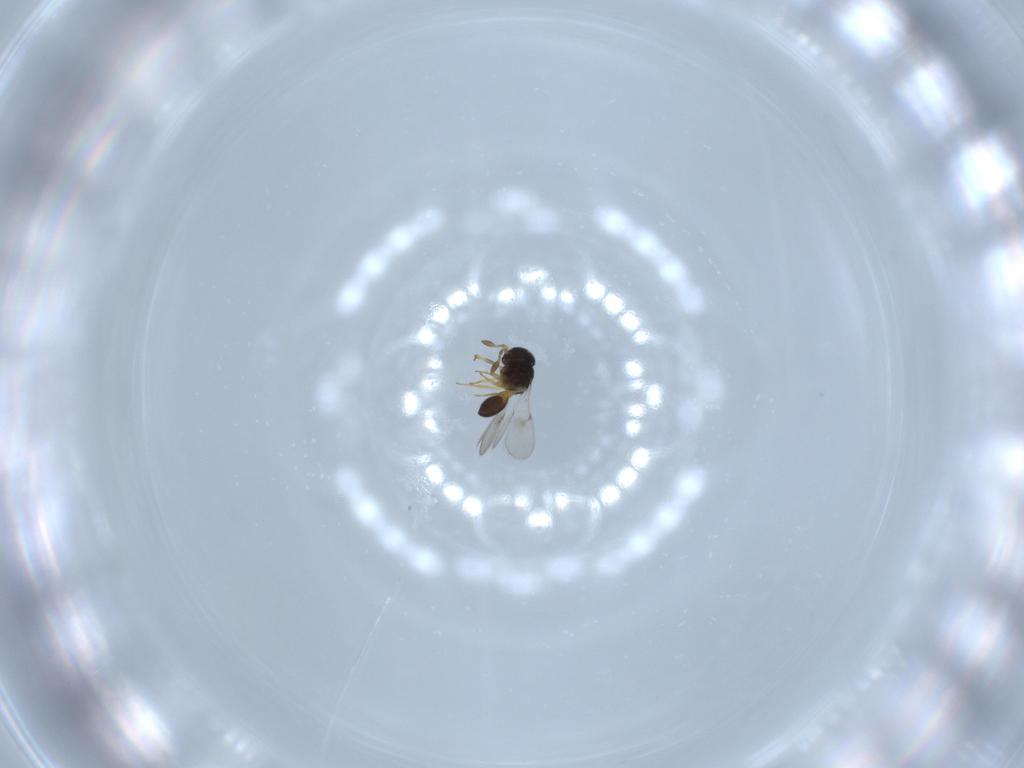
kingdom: Animalia
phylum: Arthropoda
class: Insecta
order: Hymenoptera
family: Scelionidae
